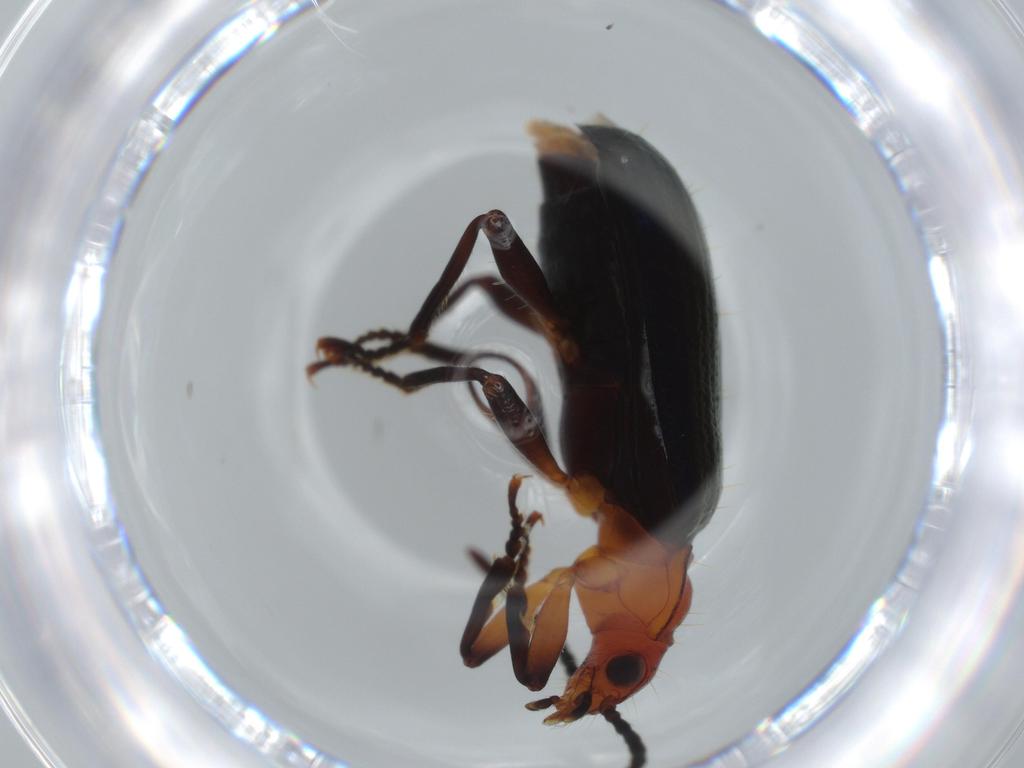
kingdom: Animalia
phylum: Arthropoda
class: Insecta
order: Coleoptera
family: Carabidae
